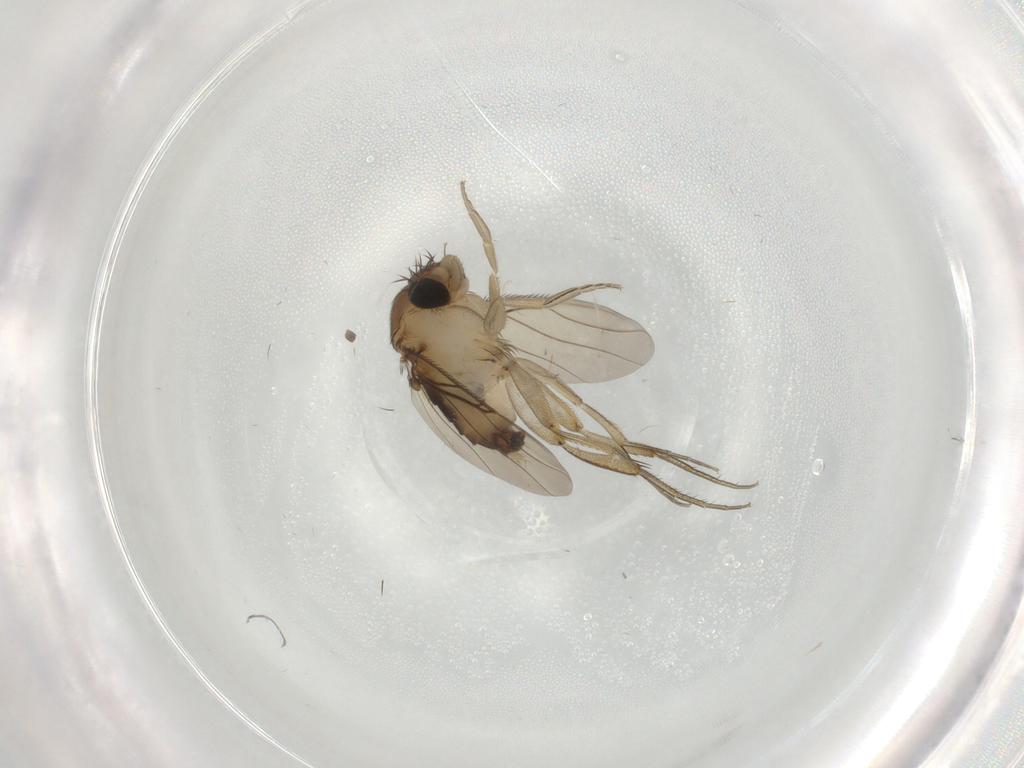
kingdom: Animalia
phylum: Arthropoda
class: Insecta
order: Diptera
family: Phoridae
